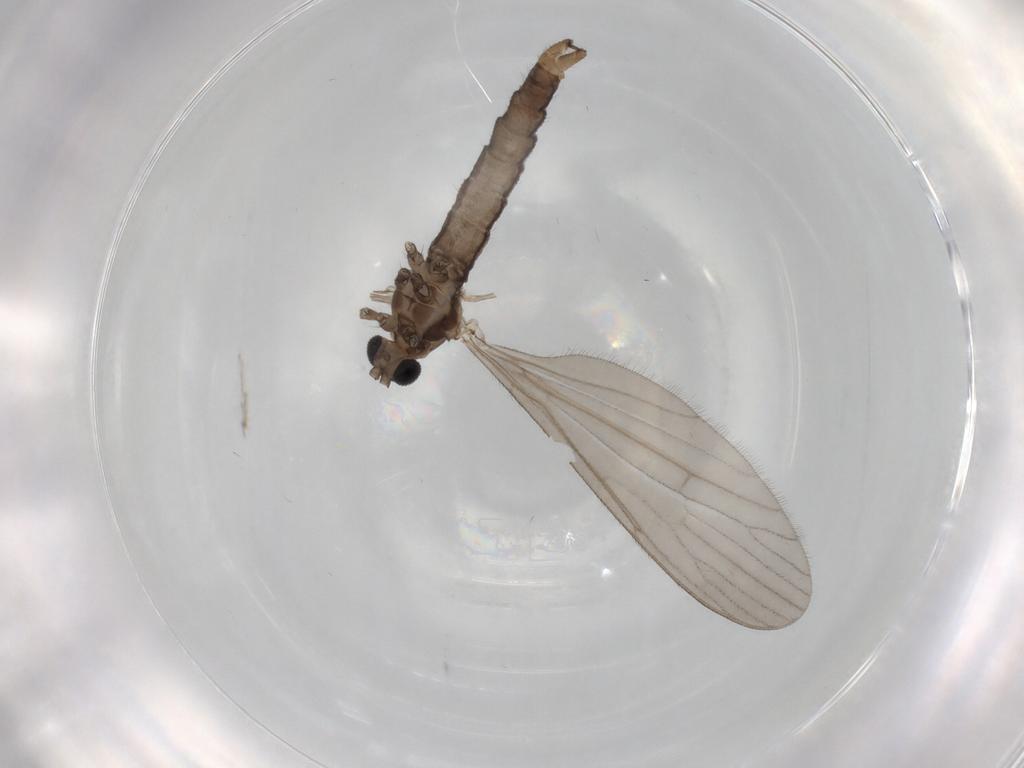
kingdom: Animalia
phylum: Arthropoda
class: Insecta
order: Diptera
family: Limoniidae
